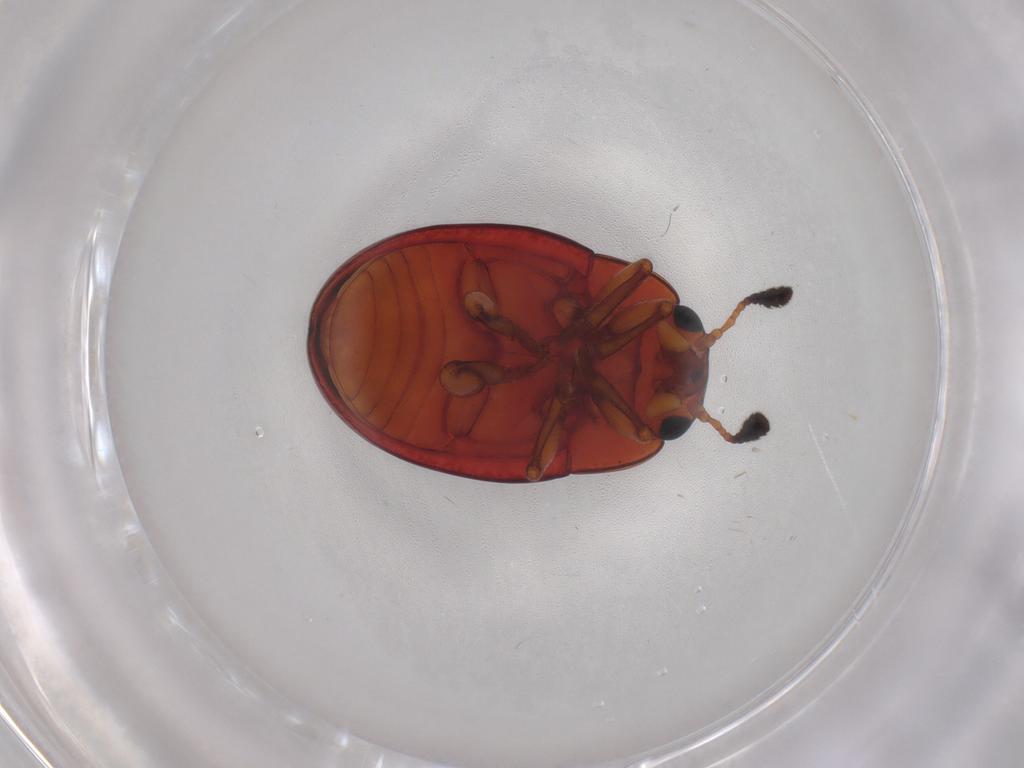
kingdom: Animalia
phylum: Arthropoda
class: Insecta
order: Coleoptera
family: Erotylidae
